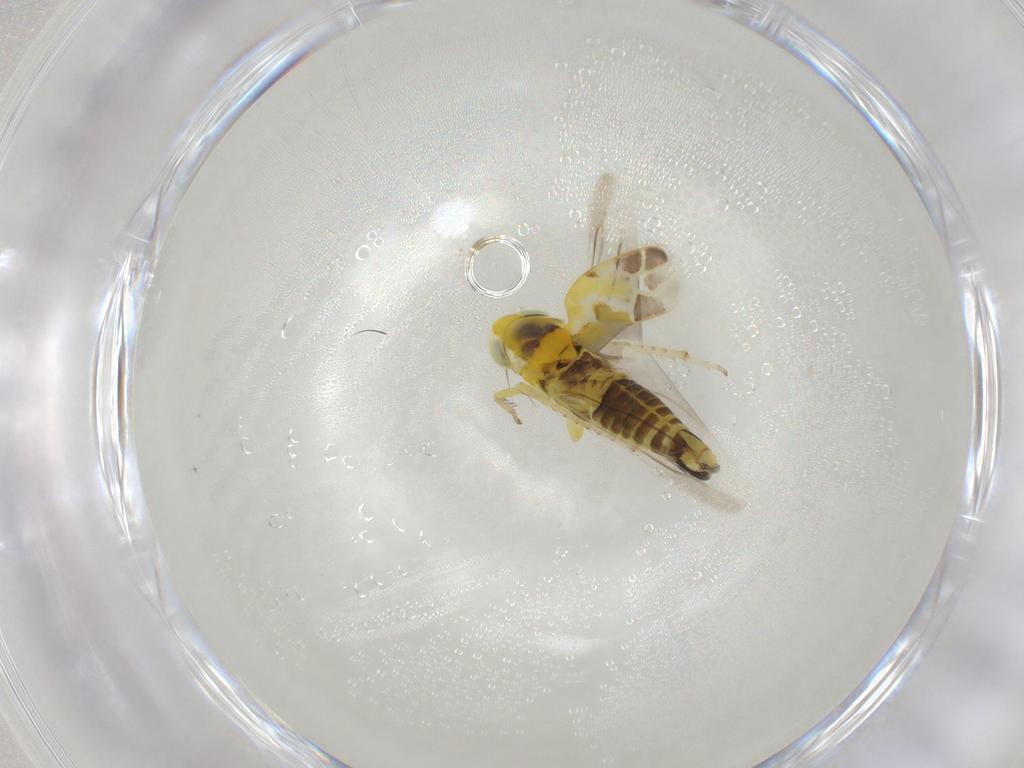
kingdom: Animalia
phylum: Arthropoda
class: Insecta
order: Hemiptera
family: Cicadellidae
